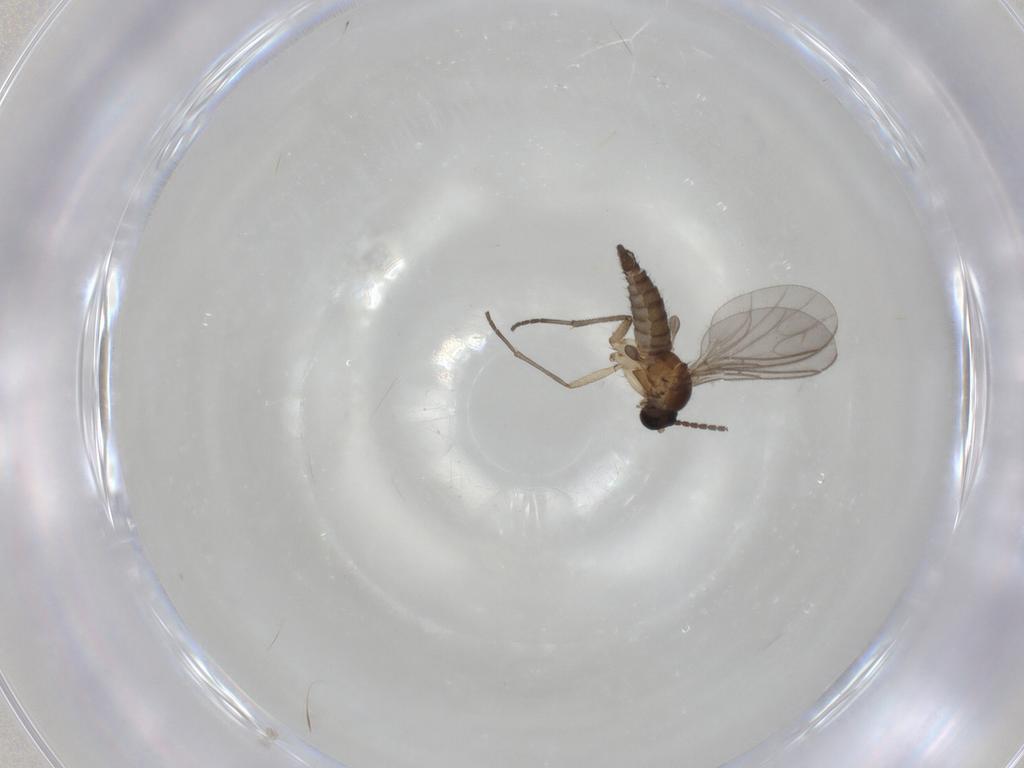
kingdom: Animalia
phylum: Arthropoda
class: Insecta
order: Diptera
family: Sciaridae
